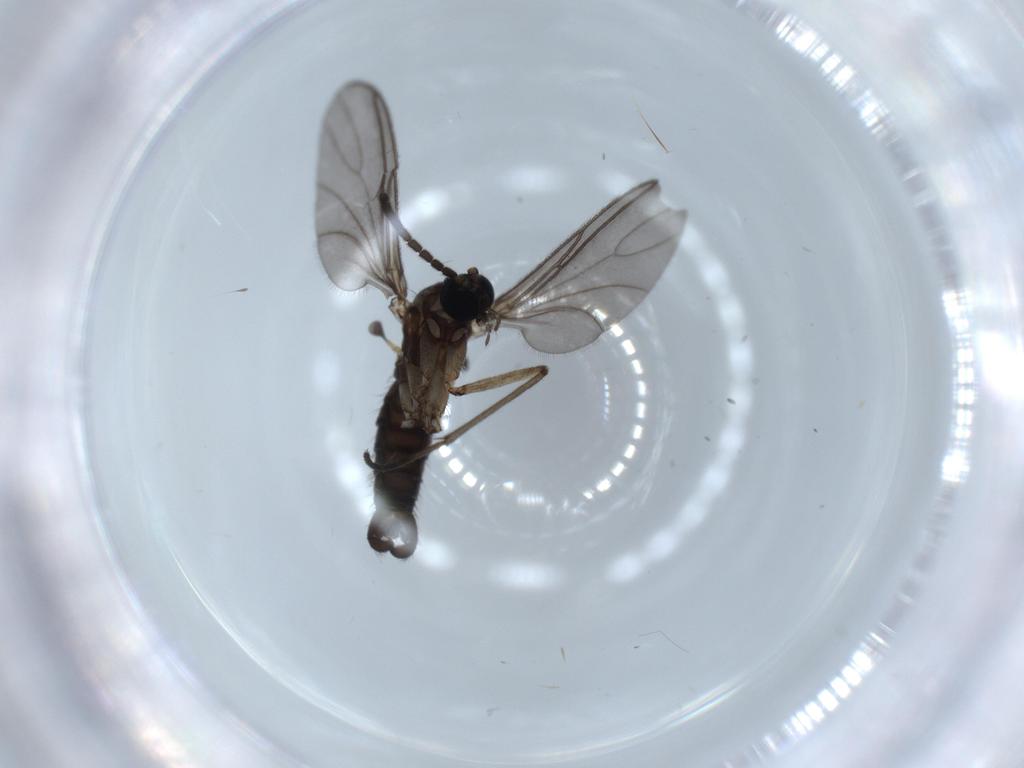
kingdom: Animalia
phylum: Arthropoda
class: Insecta
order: Diptera
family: Sciaridae
